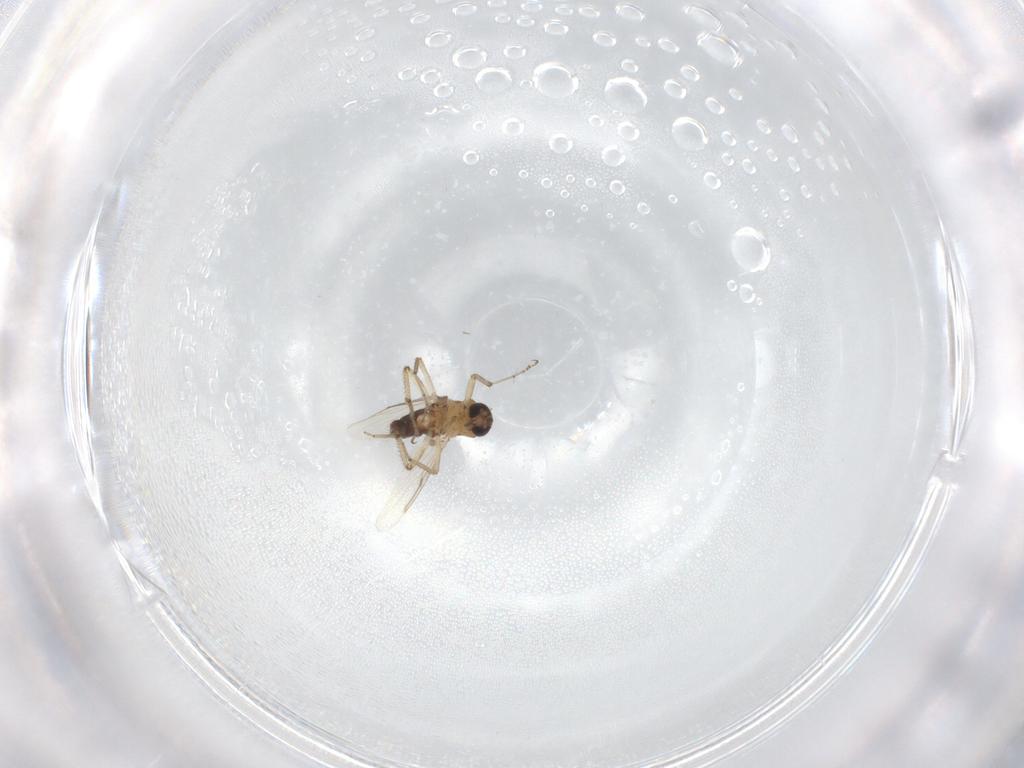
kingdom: Animalia
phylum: Arthropoda
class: Insecta
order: Diptera
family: Ceratopogonidae
